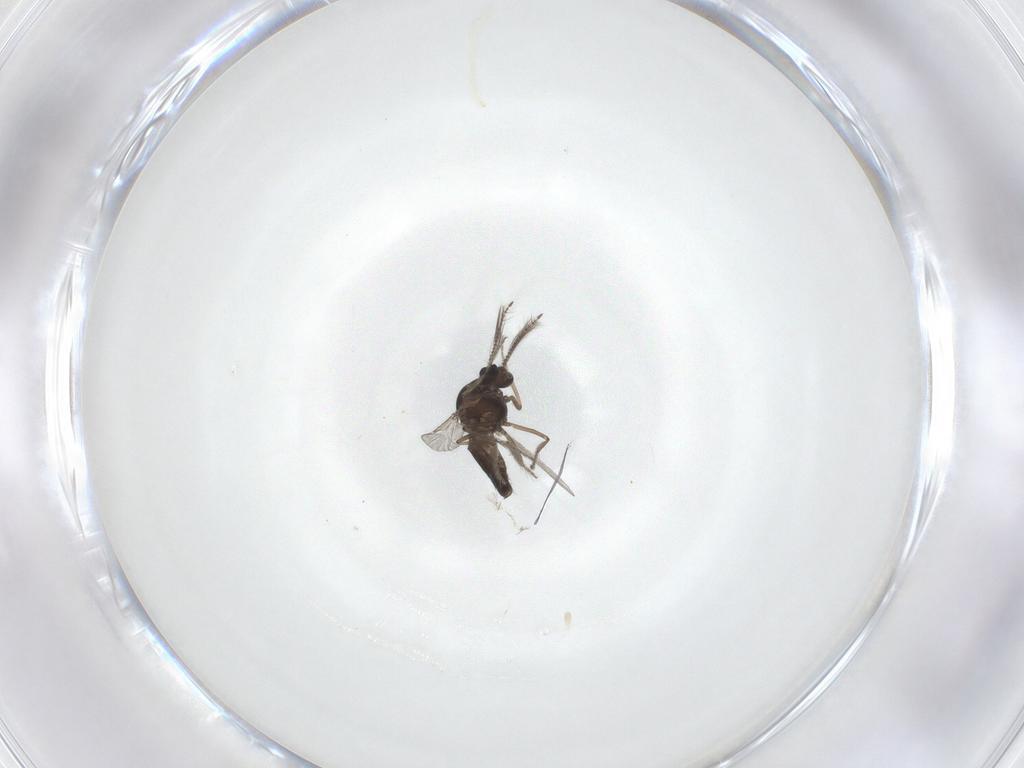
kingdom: Animalia
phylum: Arthropoda
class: Insecta
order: Diptera
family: Ceratopogonidae
